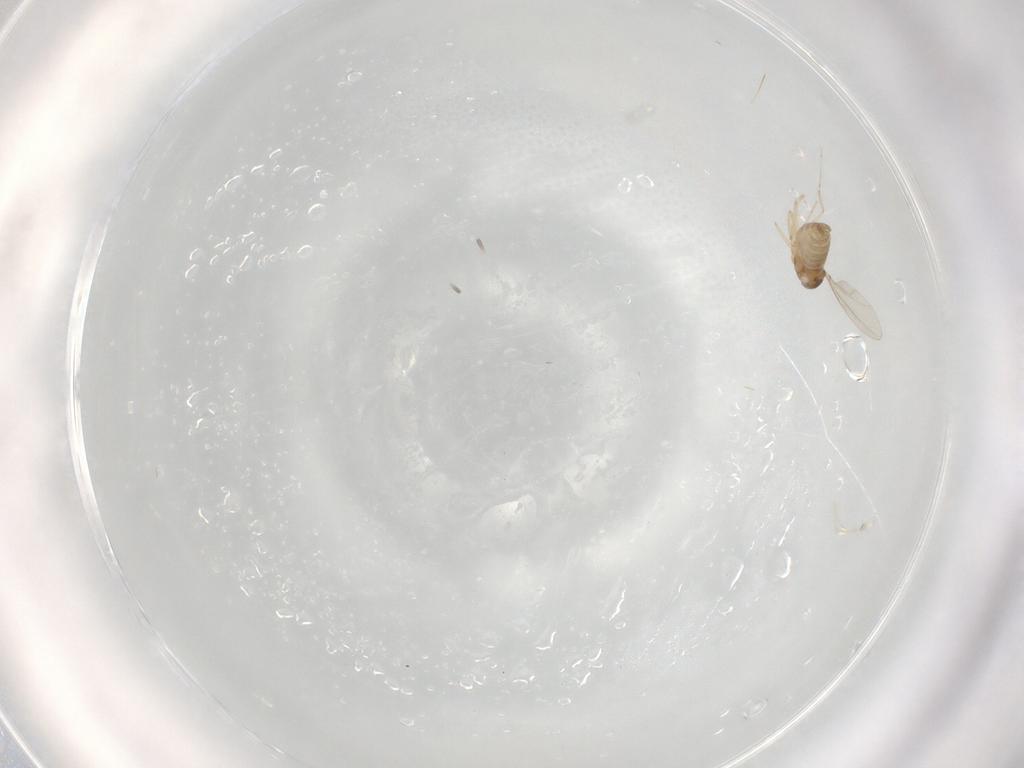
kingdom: Animalia
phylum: Arthropoda
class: Insecta
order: Diptera
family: Cecidomyiidae
